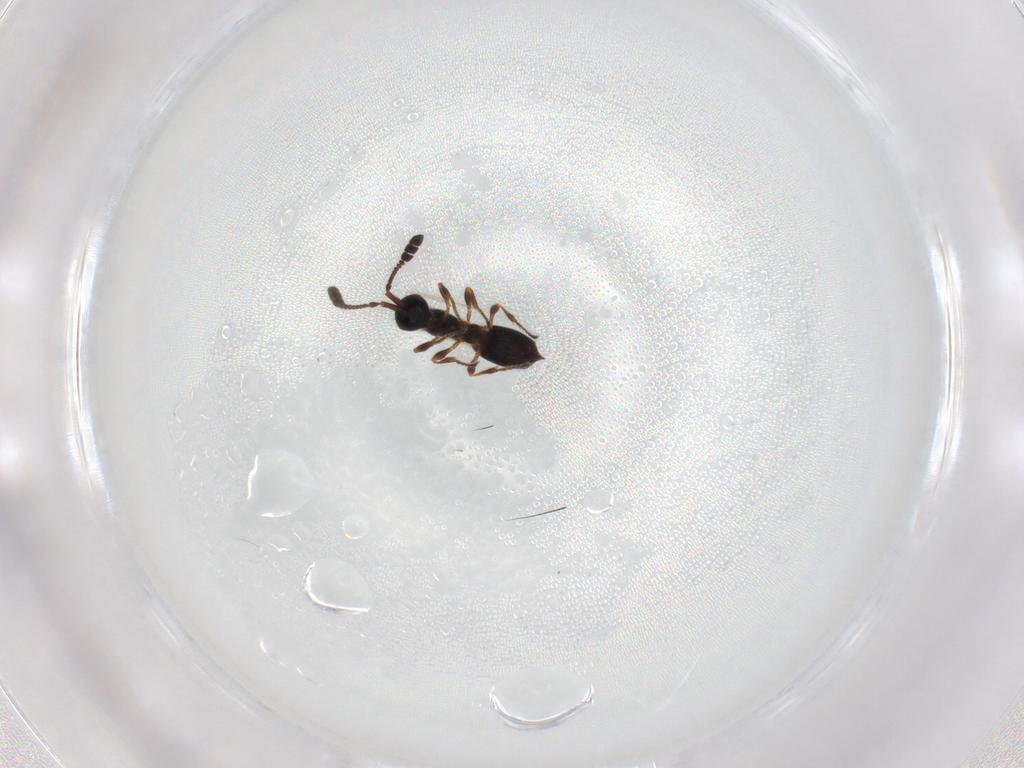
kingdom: Animalia
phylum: Arthropoda
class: Insecta
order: Hymenoptera
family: Diapriidae
